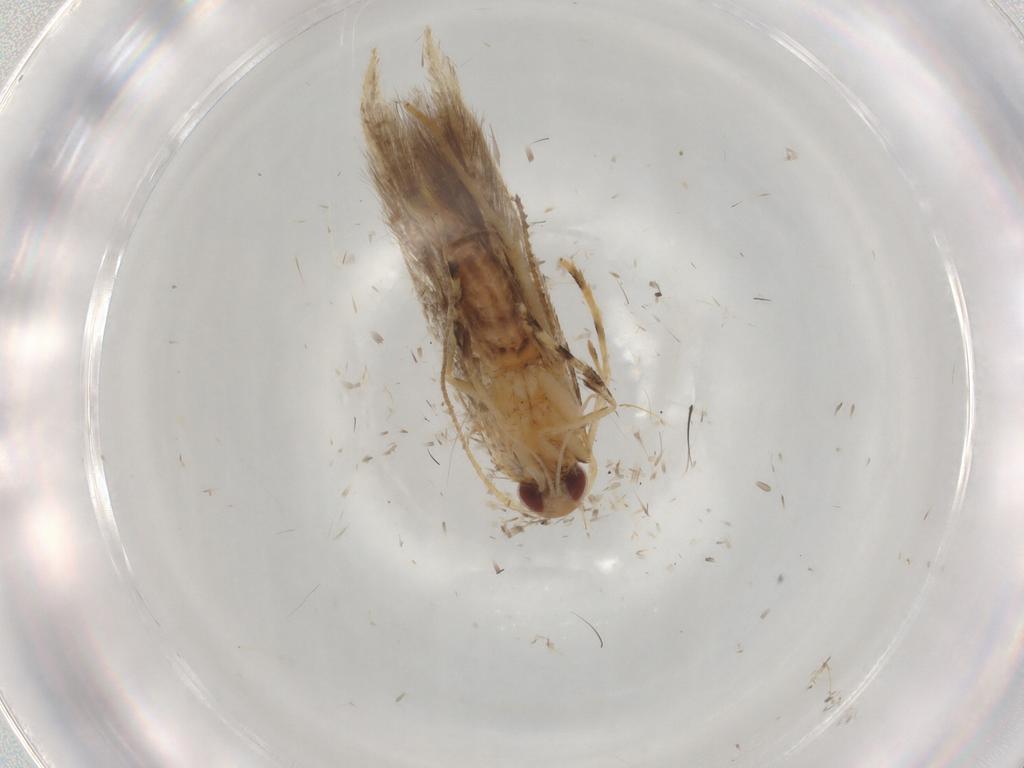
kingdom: Animalia
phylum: Arthropoda
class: Insecta
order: Lepidoptera
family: Cosmopterigidae
